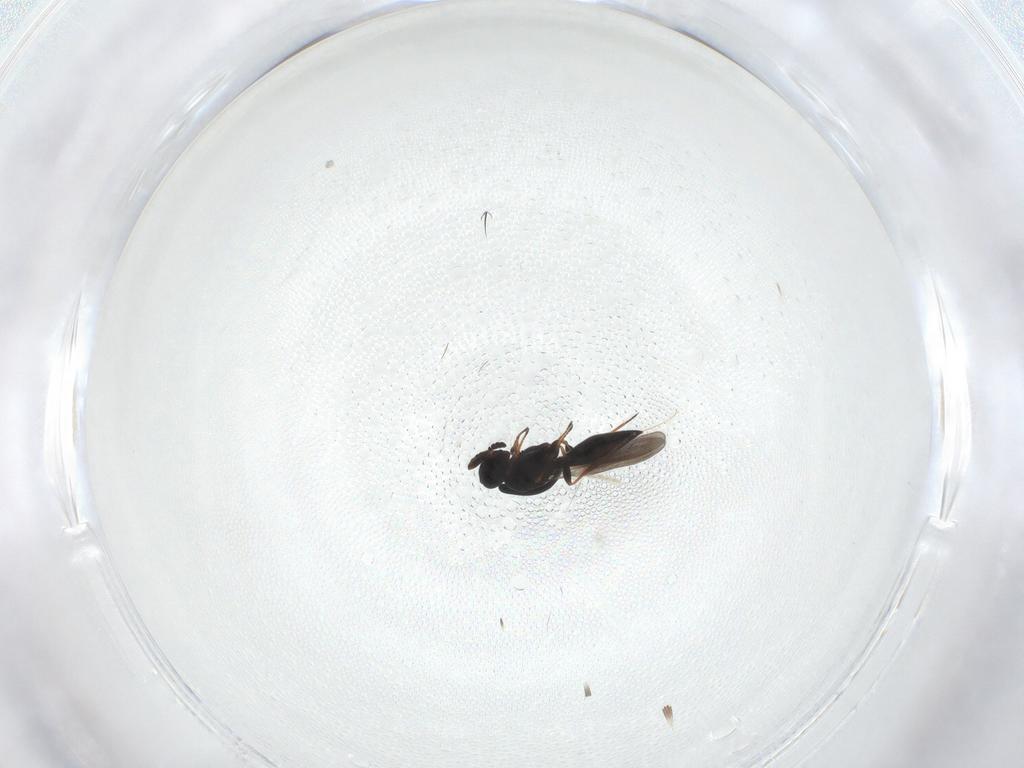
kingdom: Animalia
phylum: Arthropoda
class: Insecta
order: Hymenoptera
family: Platygastridae
